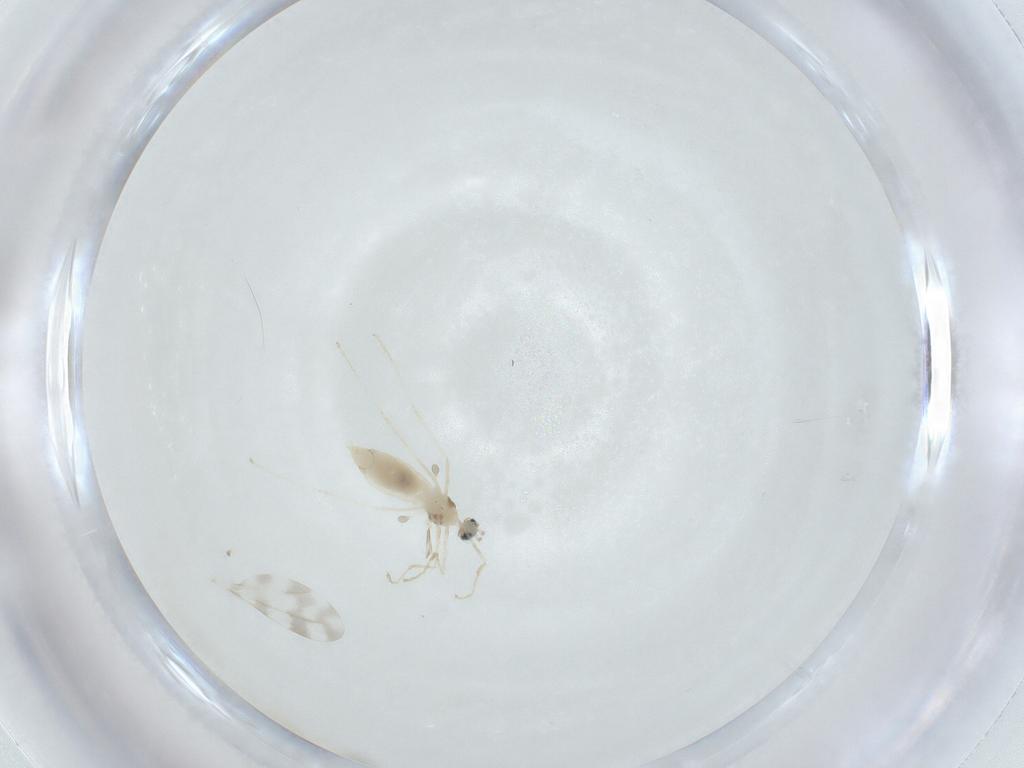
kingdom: Animalia
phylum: Arthropoda
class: Insecta
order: Diptera
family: Cecidomyiidae
